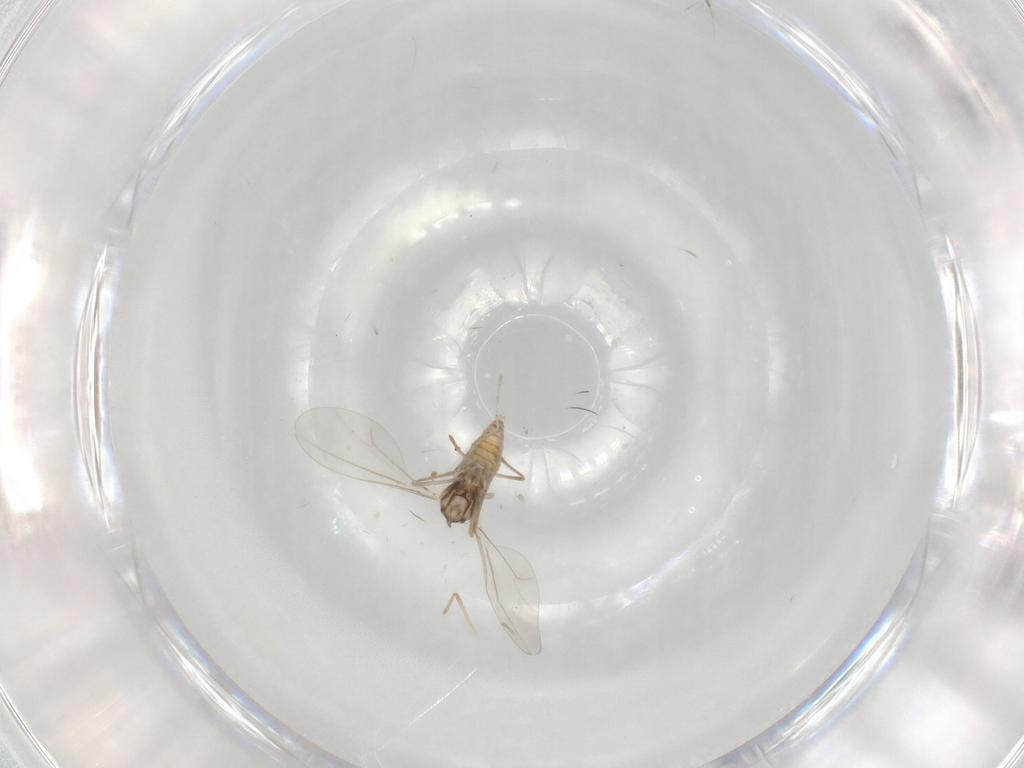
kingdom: Animalia
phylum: Arthropoda
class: Insecta
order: Diptera
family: Cecidomyiidae
